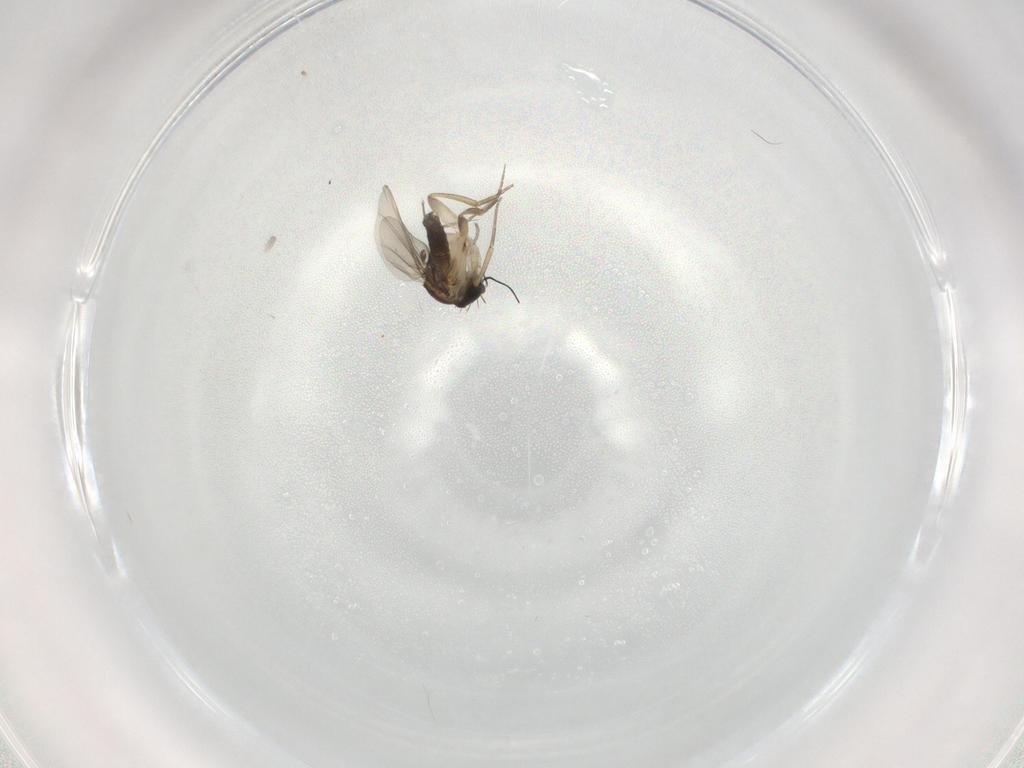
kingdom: Animalia
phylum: Arthropoda
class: Insecta
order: Diptera
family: Phoridae
